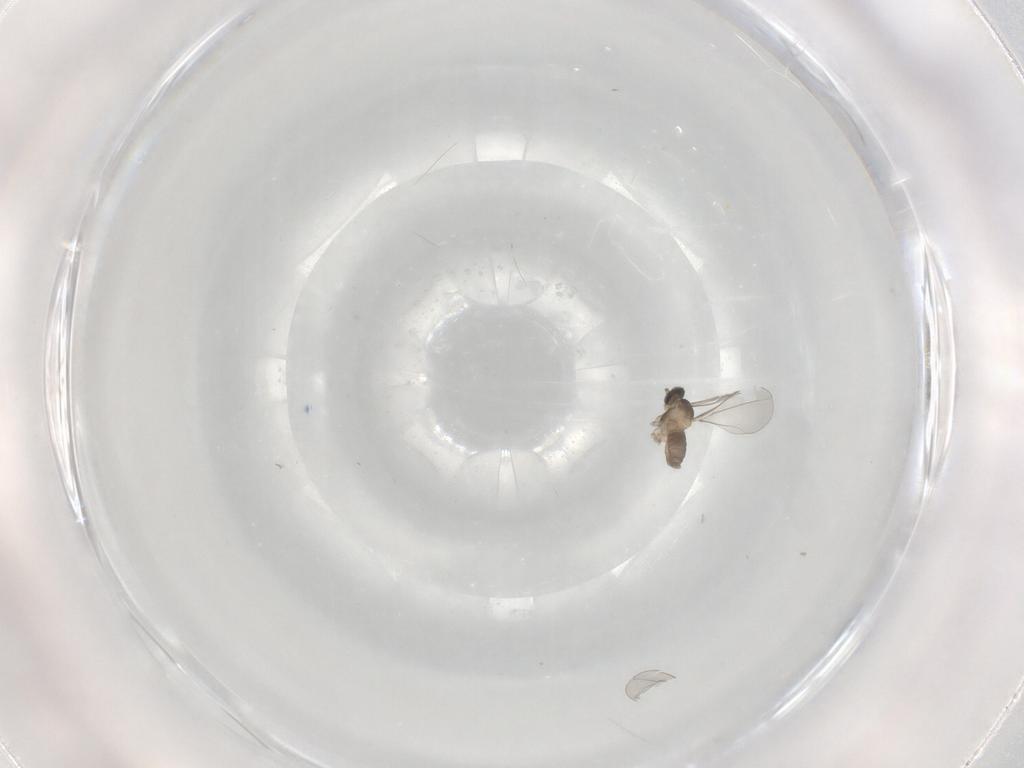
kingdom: Animalia
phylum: Arthropoda
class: Insecta
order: Diptera
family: Cecidomyiidae
